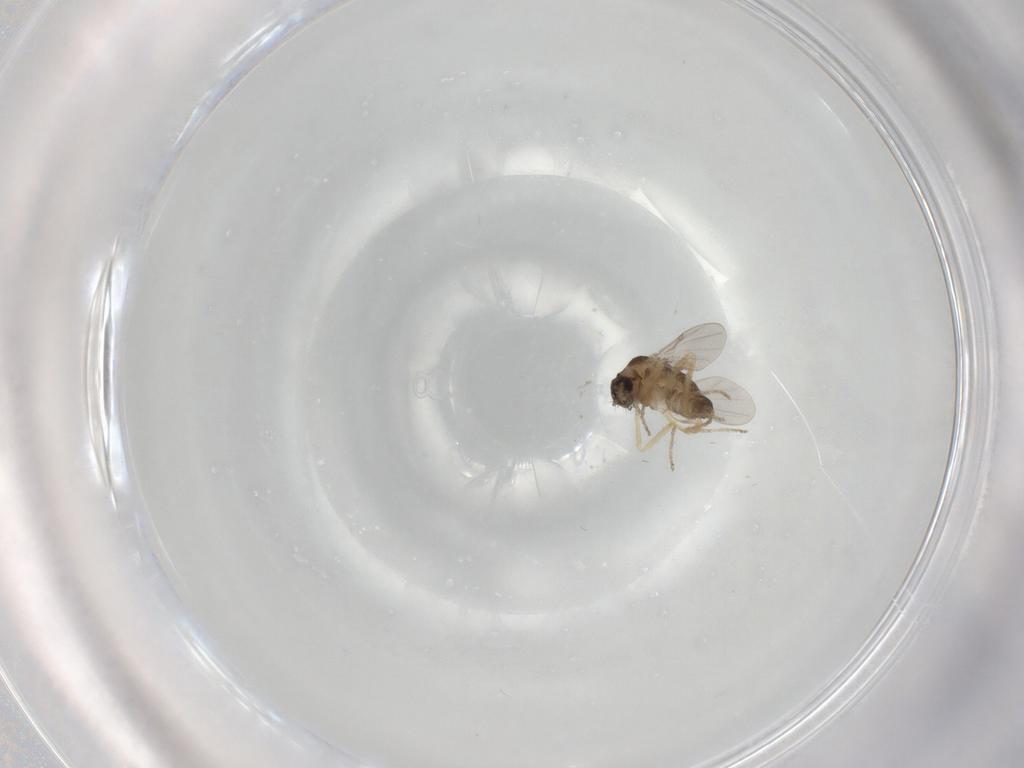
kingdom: Animalia
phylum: Arthropoda
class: Insecta
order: Diptera
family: Ceratopogonidae
